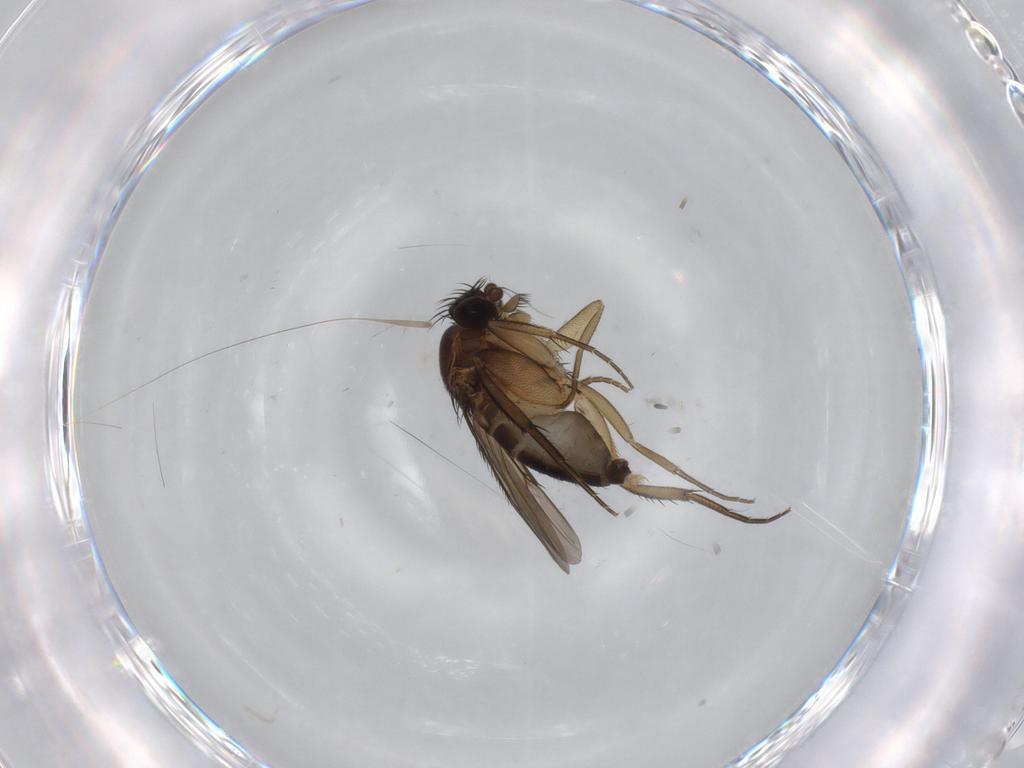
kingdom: Animalia
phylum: Arthropoda
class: Insecta
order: Diptera
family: Phoridae
